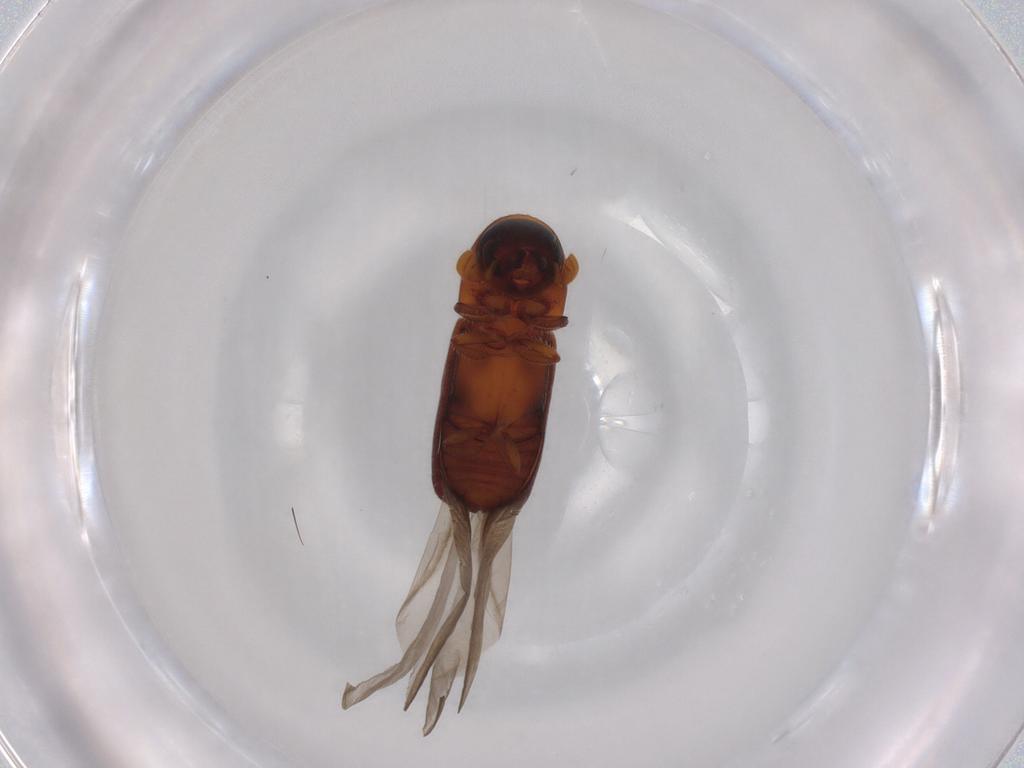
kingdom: Animalia
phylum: Arthropoda
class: Insecta
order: Coleoptera
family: Curculionidae
